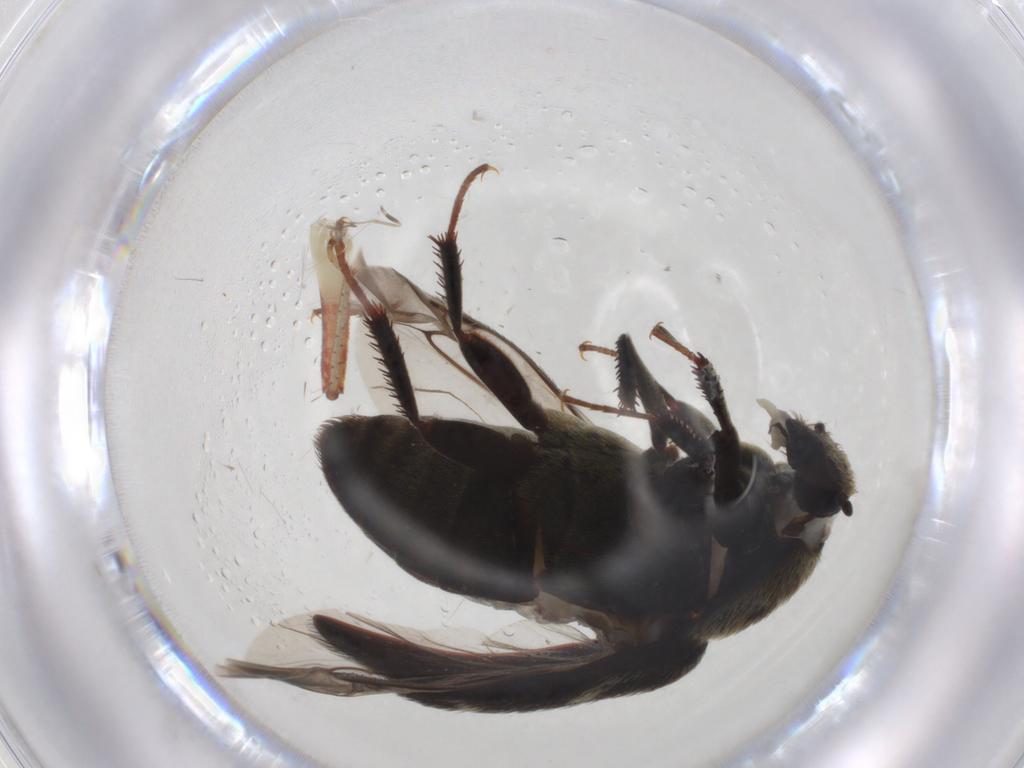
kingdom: Animalia
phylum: Arthropoda
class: Insecta
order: Coleoptera
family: Dermestidae
